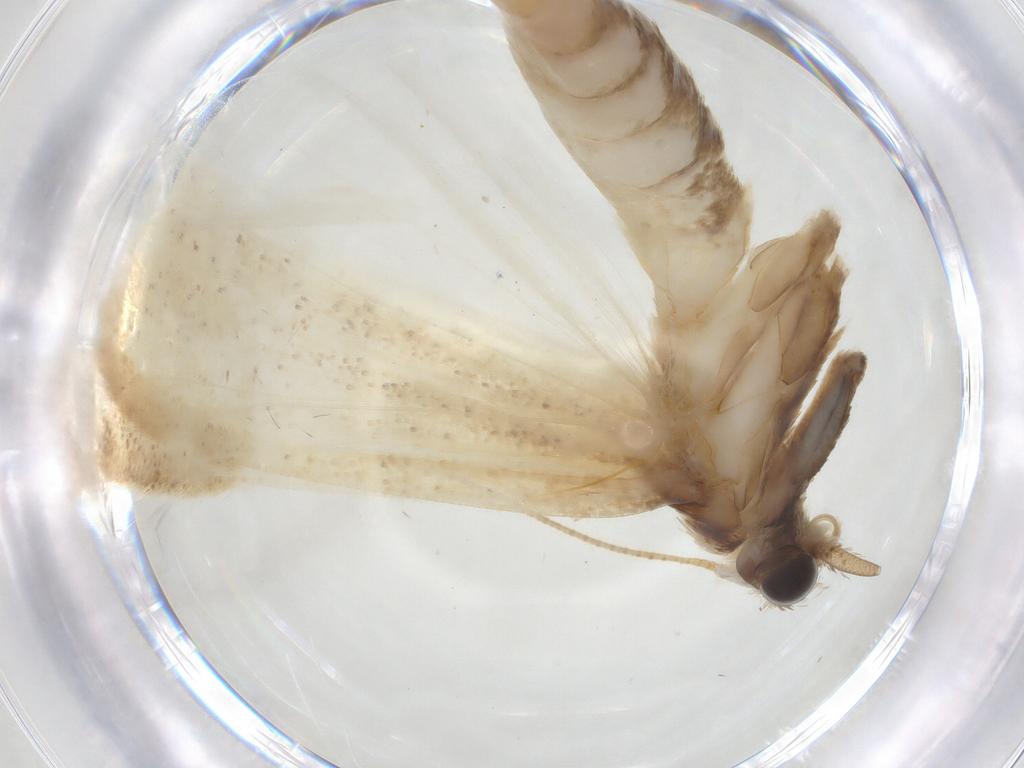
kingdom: Animalia
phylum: Arthropoda
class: Insecta
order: Lepidoptera
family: Pyralidae
